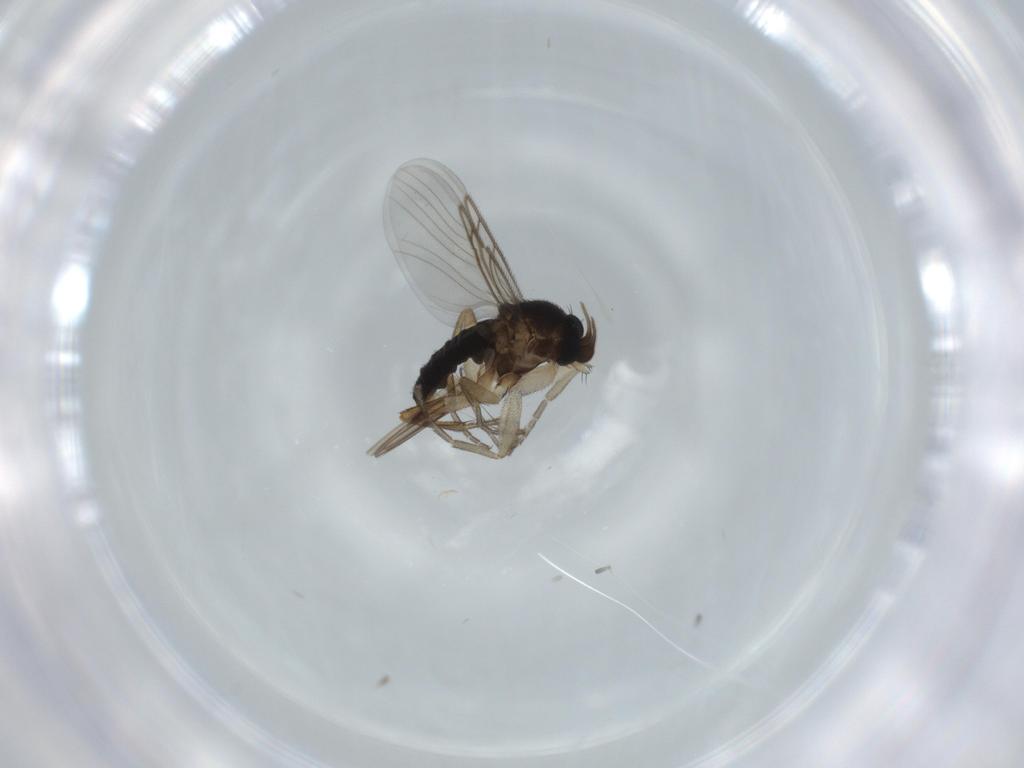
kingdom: Animalia
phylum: Arthropoda
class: Insecta
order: Diptera
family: Psychodidae
